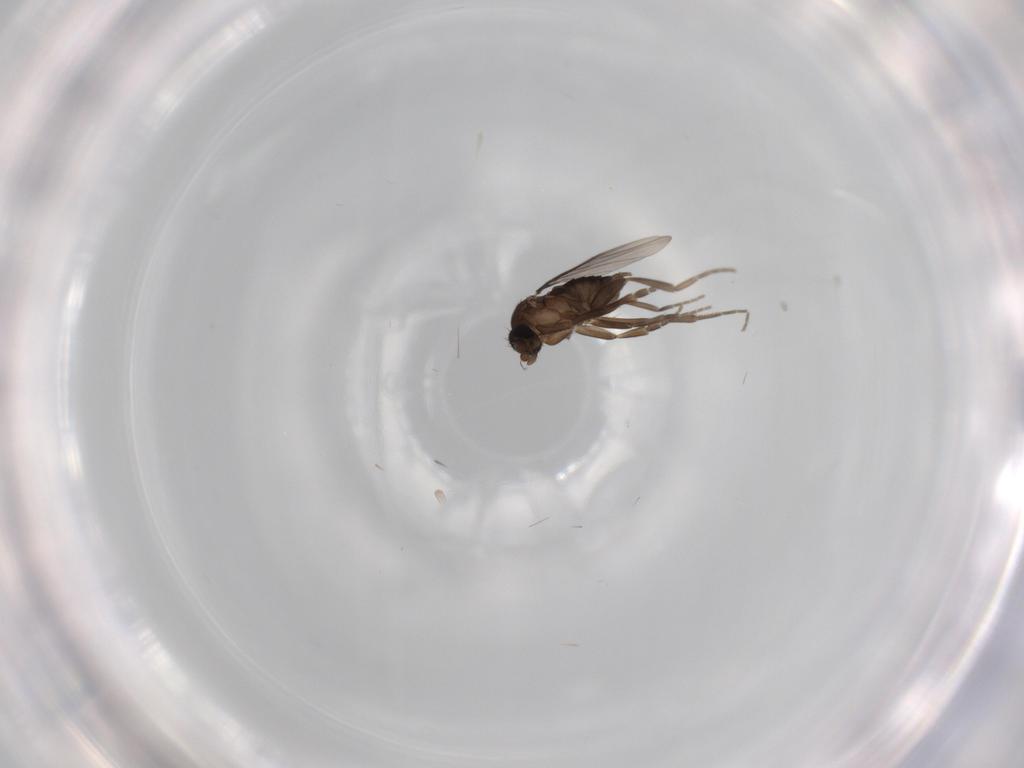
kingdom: Animalia
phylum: Arthropoda
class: Insecta
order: Diptera
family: Phoridae
